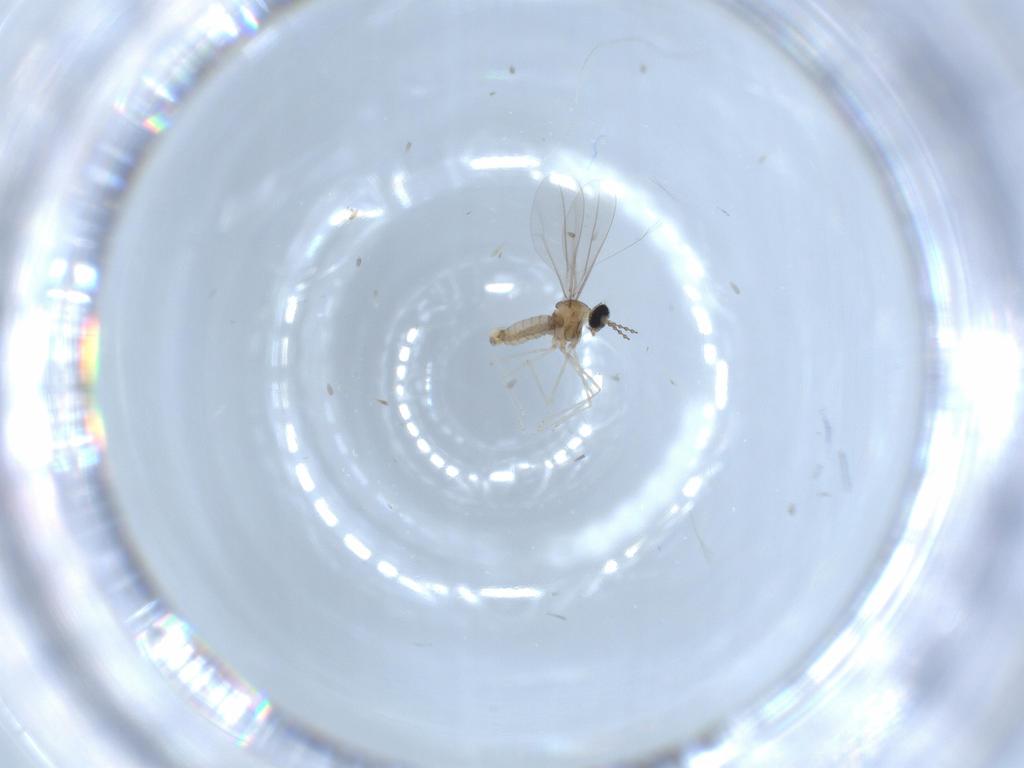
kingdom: Animalia
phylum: Arthropoda
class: Insecta
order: Diptera
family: Cecidomyiidae
